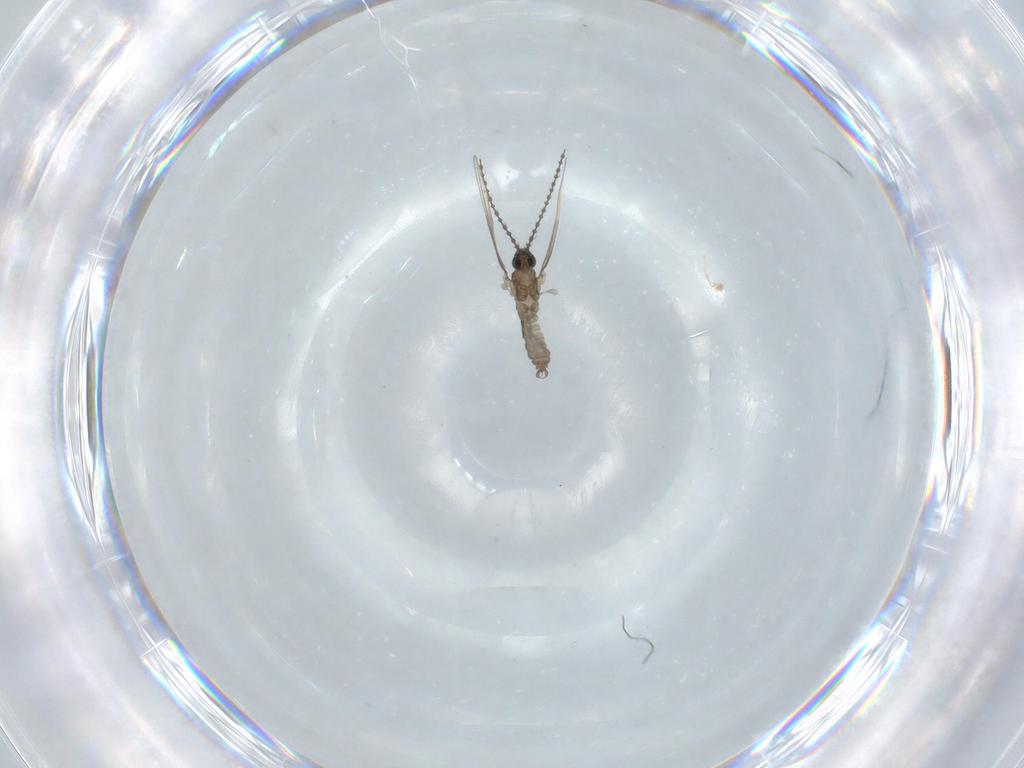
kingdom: Animalia
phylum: Arthropoda
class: Insecta
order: Diptera
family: Cecidomyiidae
